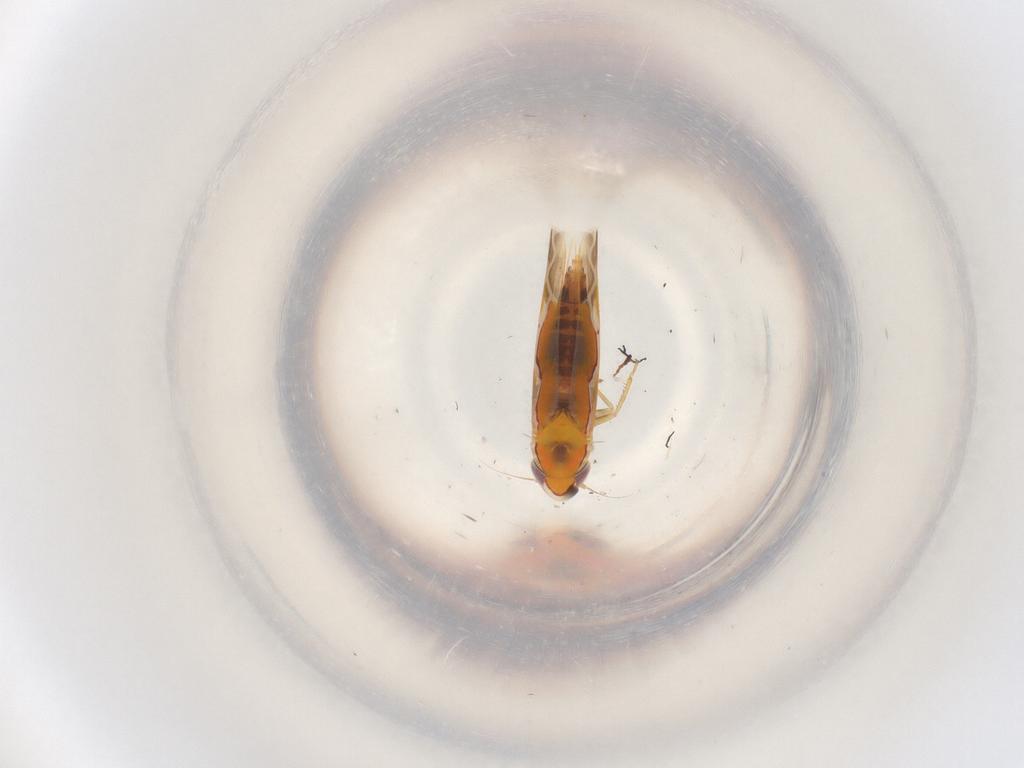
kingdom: Animalia
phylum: Arthropoda
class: Insecta
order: Hemiptera
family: Cicadellidae
